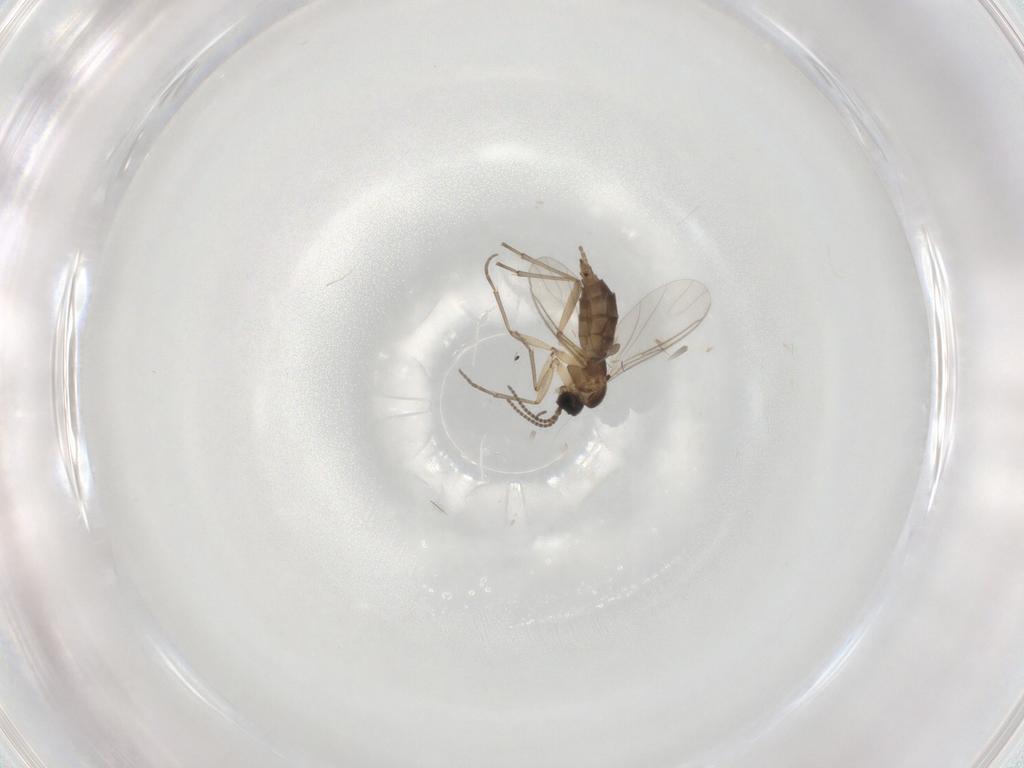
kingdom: Animalia
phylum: Arthropoda
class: Insecta
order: Diptera
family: Sciaridae
